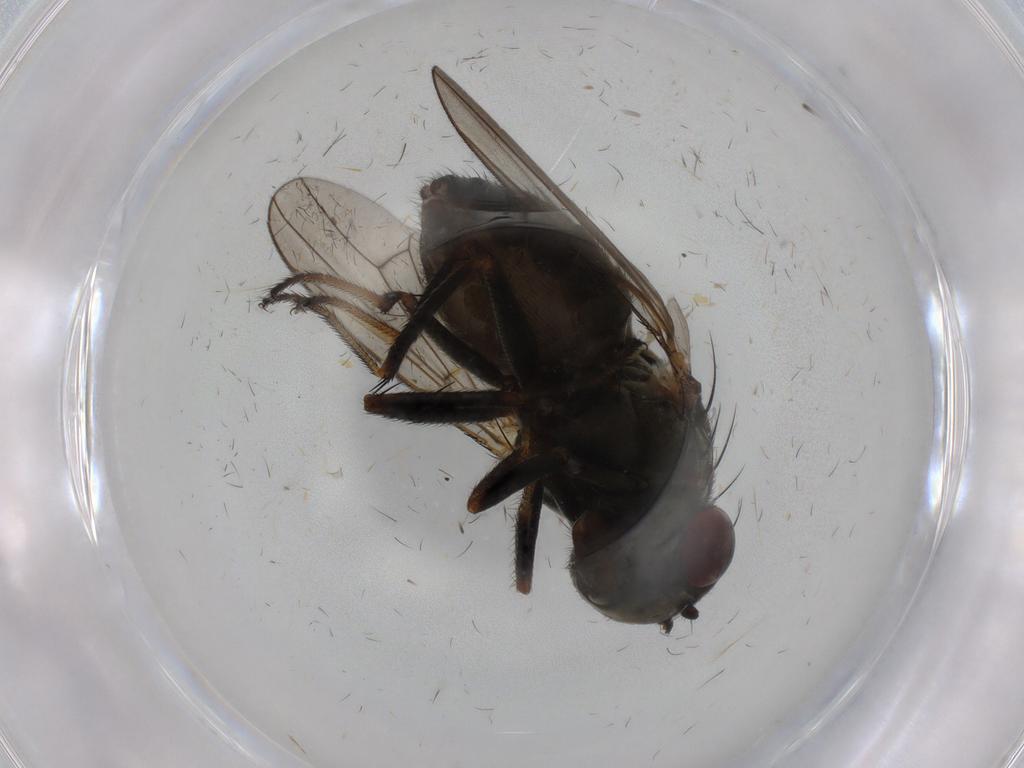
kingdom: Animalia
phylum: Arthropoda
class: Insecta
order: Diptera
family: Ephydridae
